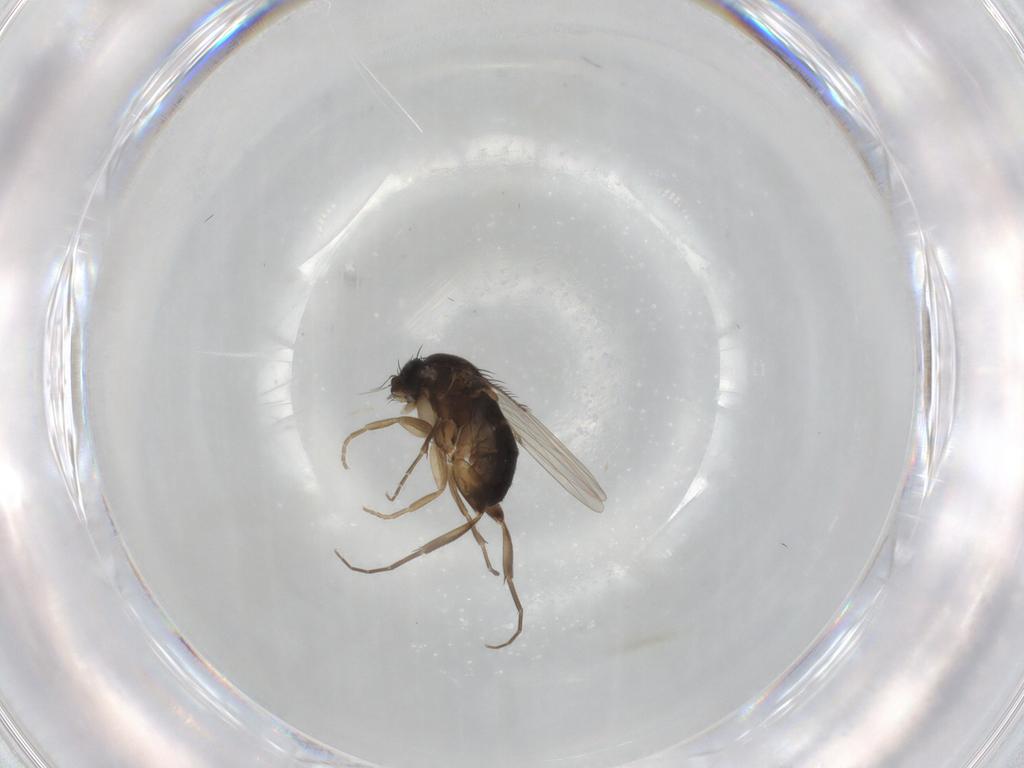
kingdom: Animalia
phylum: Arthropoda
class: Insecta
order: Diptera
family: Phoridae
